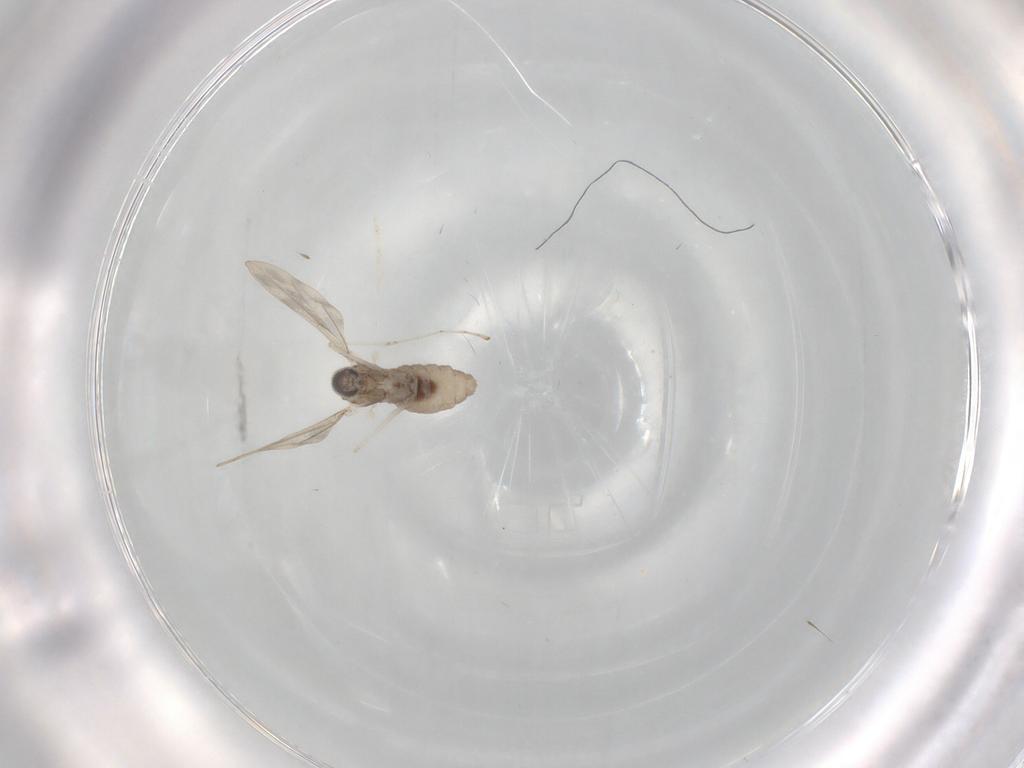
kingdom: Animalia
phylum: Arthropoda
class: Insecta
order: Diptera
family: Cecidomyiidae
